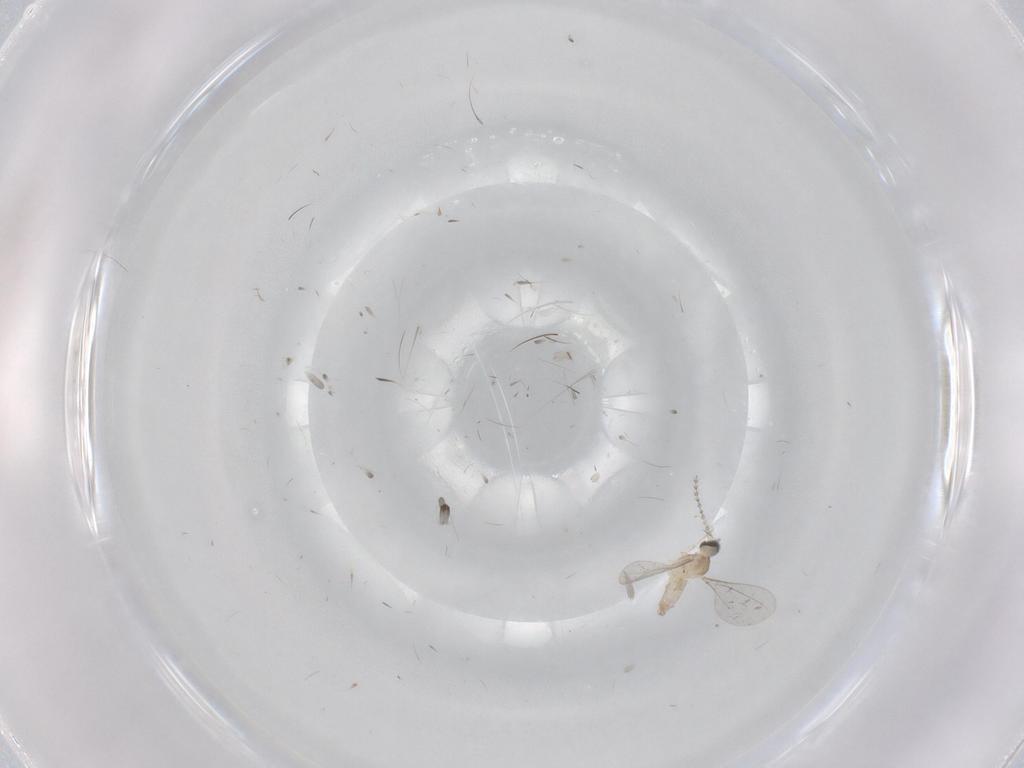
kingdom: Animalia
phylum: Arthropoda
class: Insecta
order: Diptera
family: Cecidomyiidae
